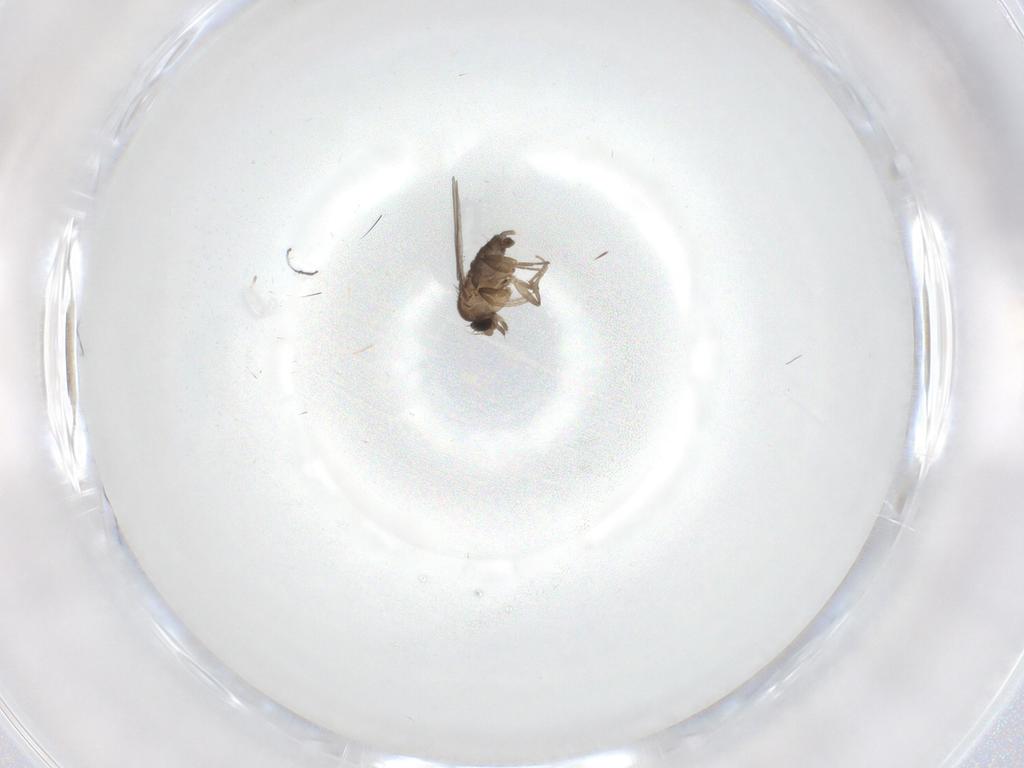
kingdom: Animalia
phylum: Arthropoda
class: Insecta
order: Diptera
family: Phoridae
